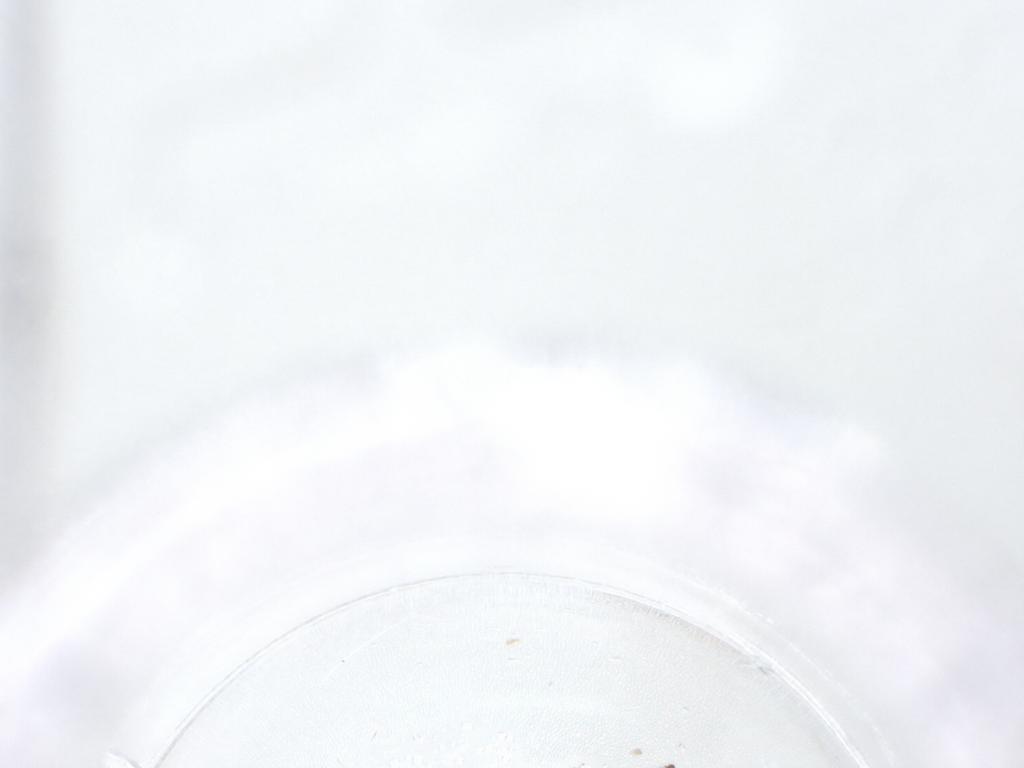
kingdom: Animalia
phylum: Arthropoda
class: Insecta
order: Diptera
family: Ceratopogonidae
